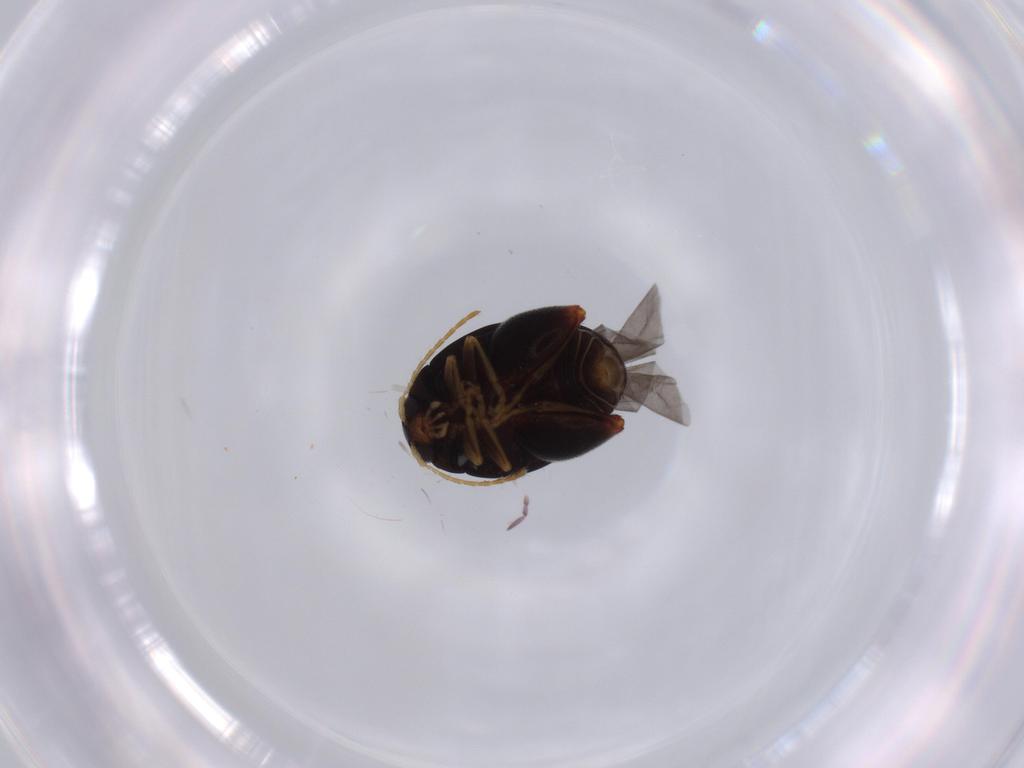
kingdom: Animalia
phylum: Arthropoda
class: Insecta
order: Coleoptera
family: Chrysomelidae
